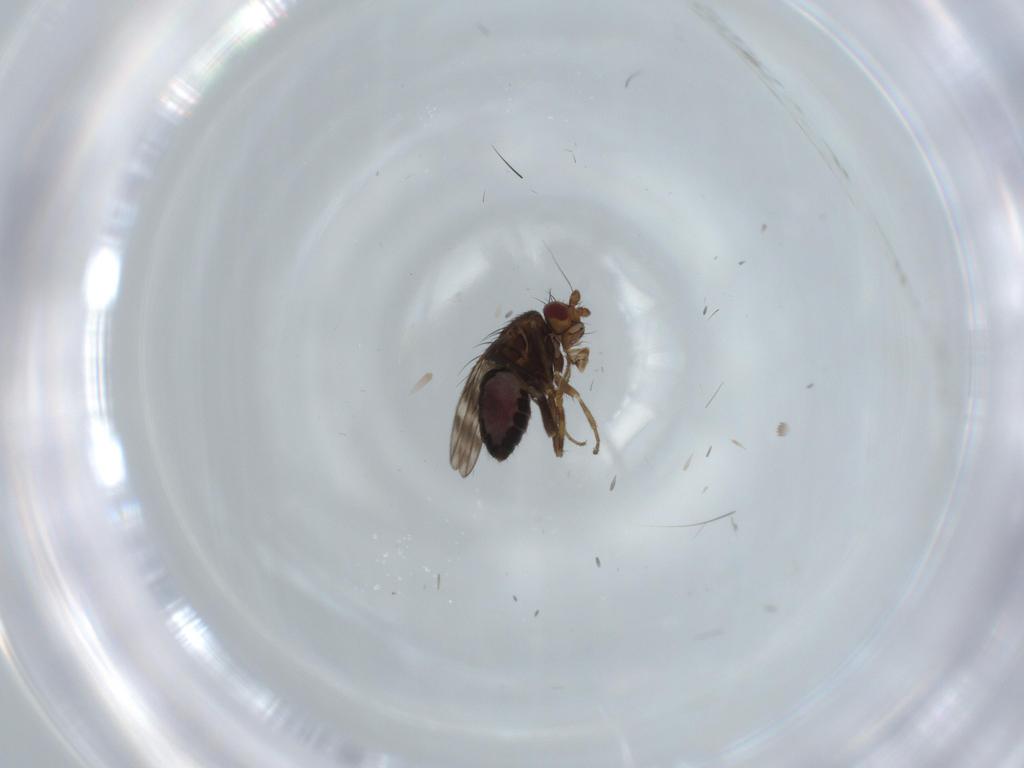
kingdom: Animalia
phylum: Arthropoda
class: Insecta
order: Diptera
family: Sphaeroceridae
